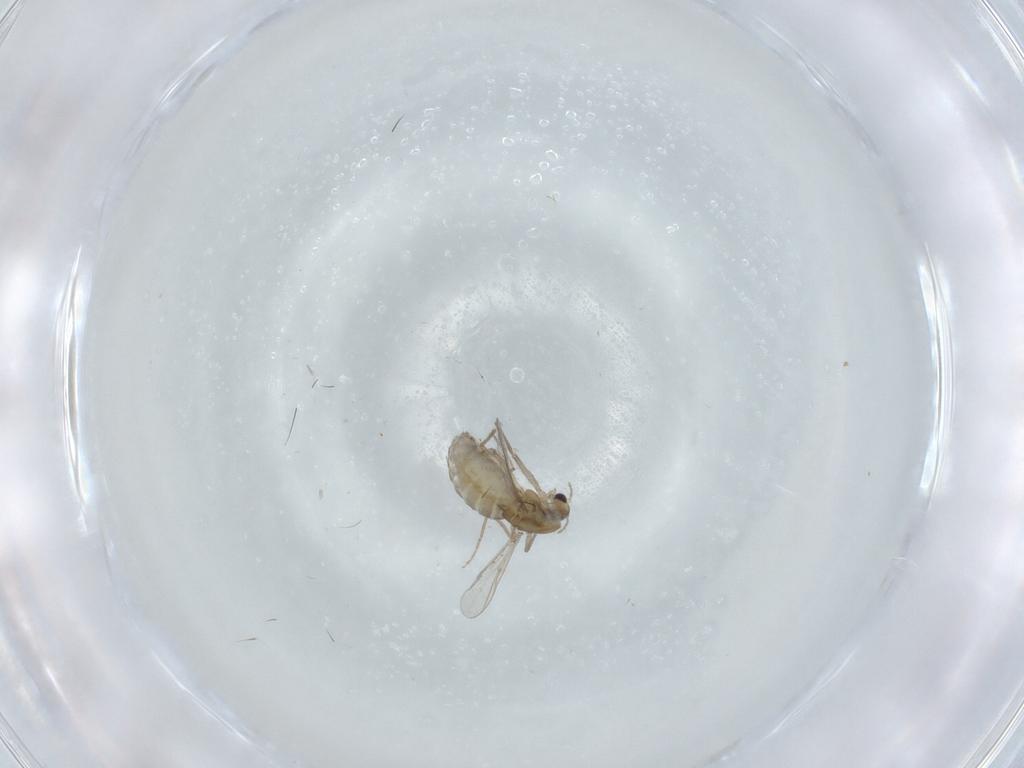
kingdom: Animalia
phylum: Arthropoda
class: Insecta
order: Diptera
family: Chironomidae
